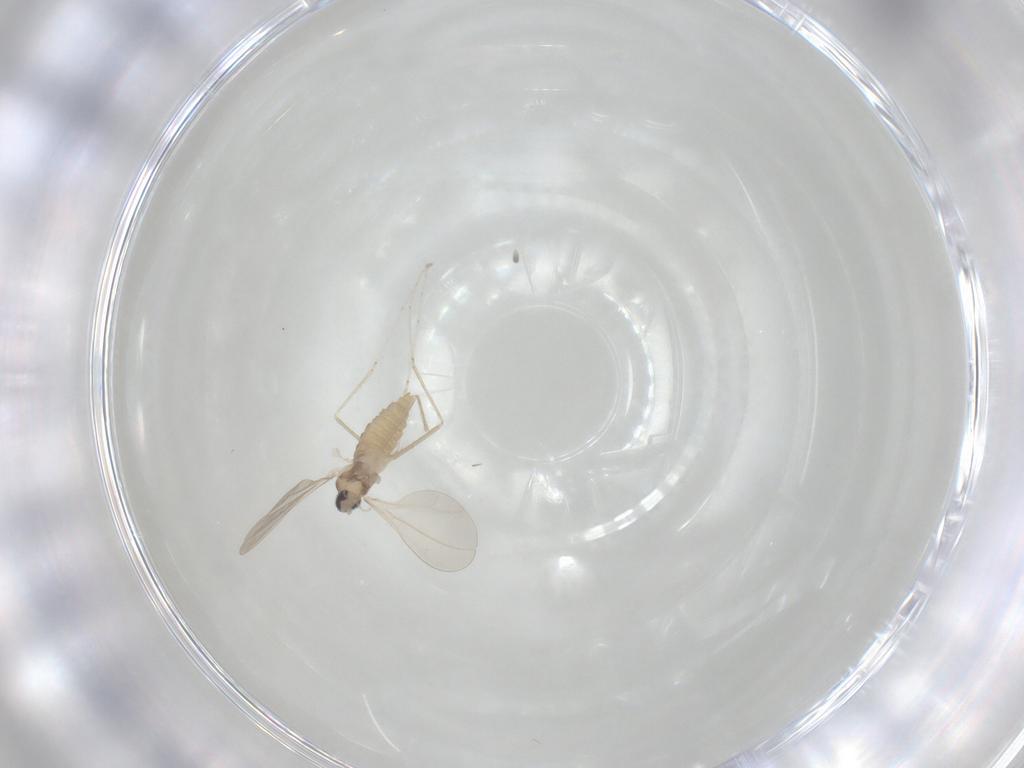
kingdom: Animalia
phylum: Arthropoda
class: Insecta
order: Diptera
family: Cecidomyiidae
